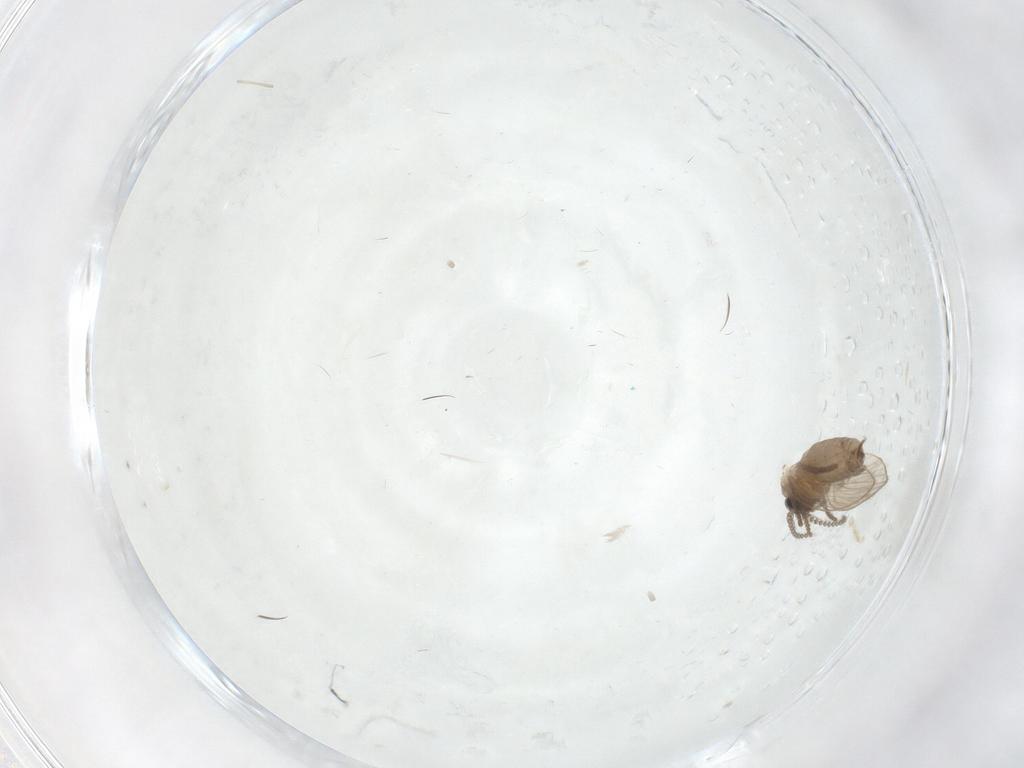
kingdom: Animalia
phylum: Arthropoda
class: Insecta
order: Diptera
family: Psychodidae
